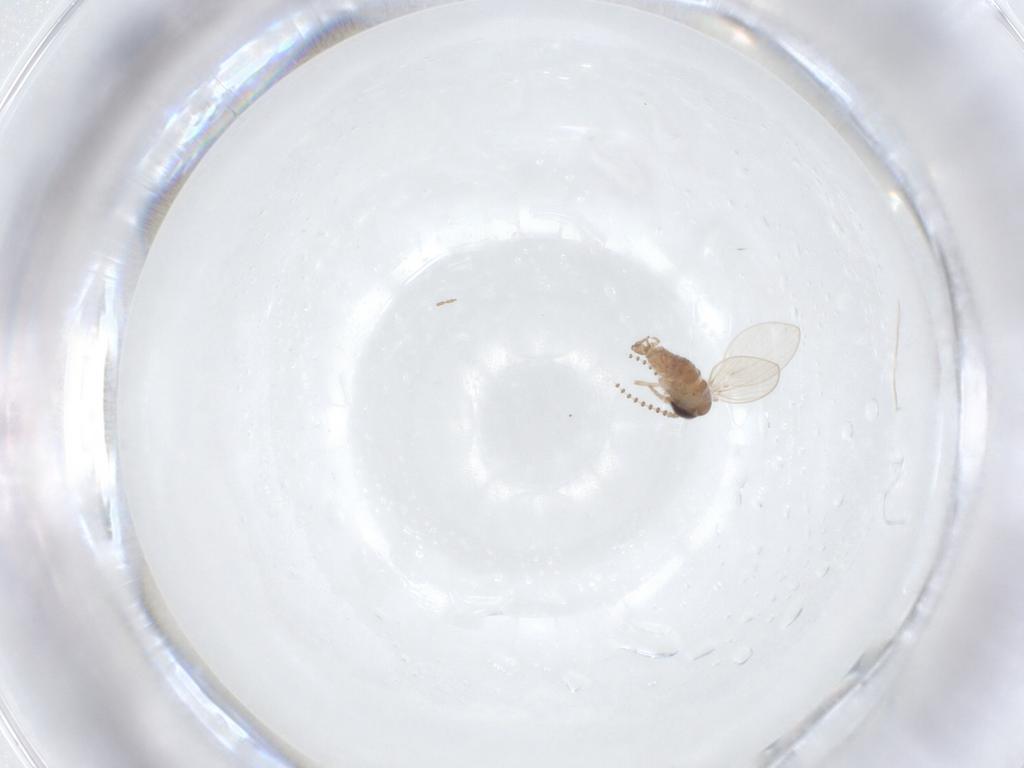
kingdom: Animalia
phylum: Arthropoda
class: Insecta
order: Diptera
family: Psychodidae
